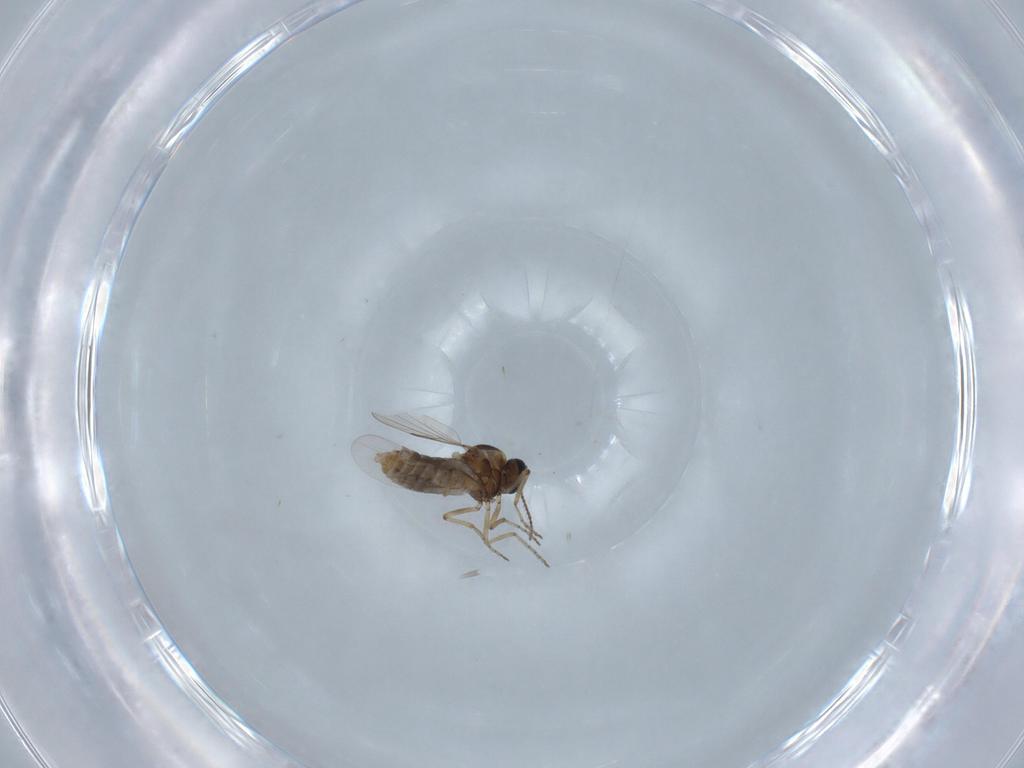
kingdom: Animalia
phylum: Arthropoda
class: Insecta
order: Diptera
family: Ceratopogonidae
